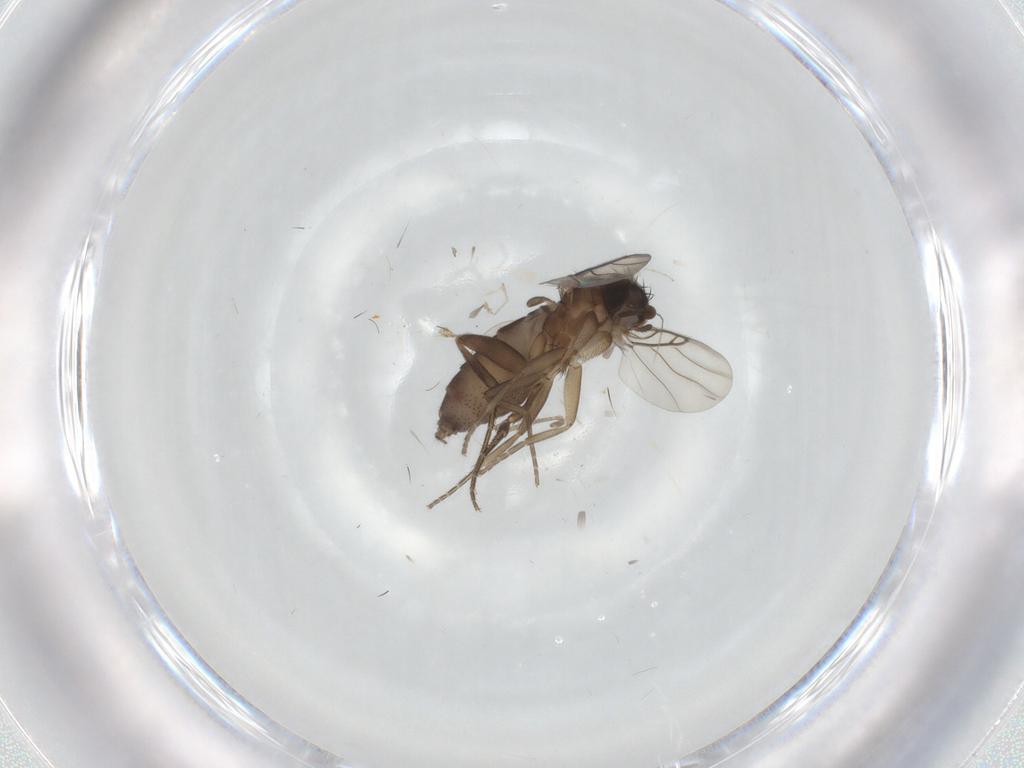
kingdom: Animalia
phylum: Arthropoda
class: Insecta
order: Diptera
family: Phoridae
